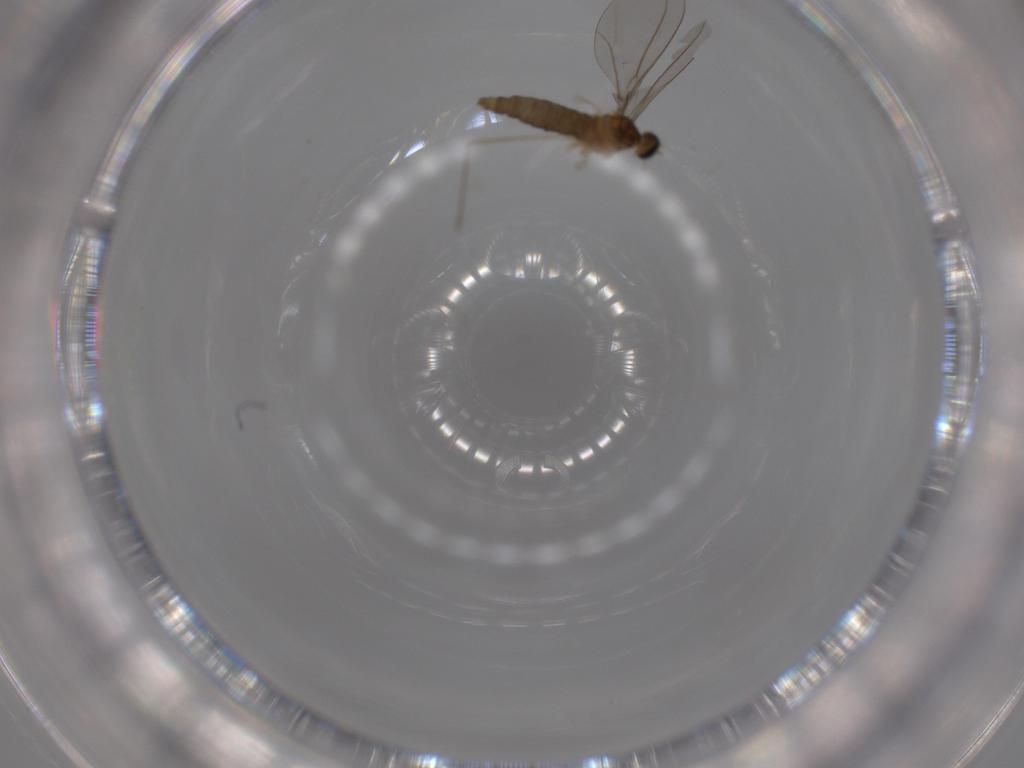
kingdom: Animalia
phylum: Arthropoda
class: Insecta
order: Diptera
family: Cecidomyiidae
